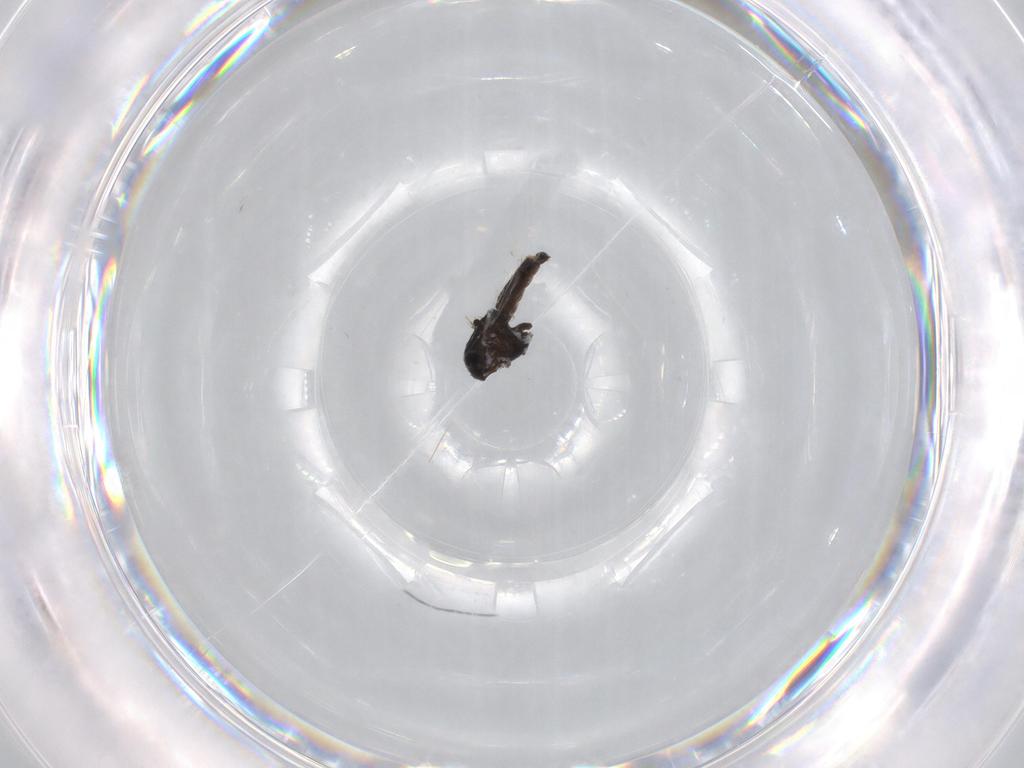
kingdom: Animalia
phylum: Arthropoda
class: Insecta
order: Diptera
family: Chironomidae
